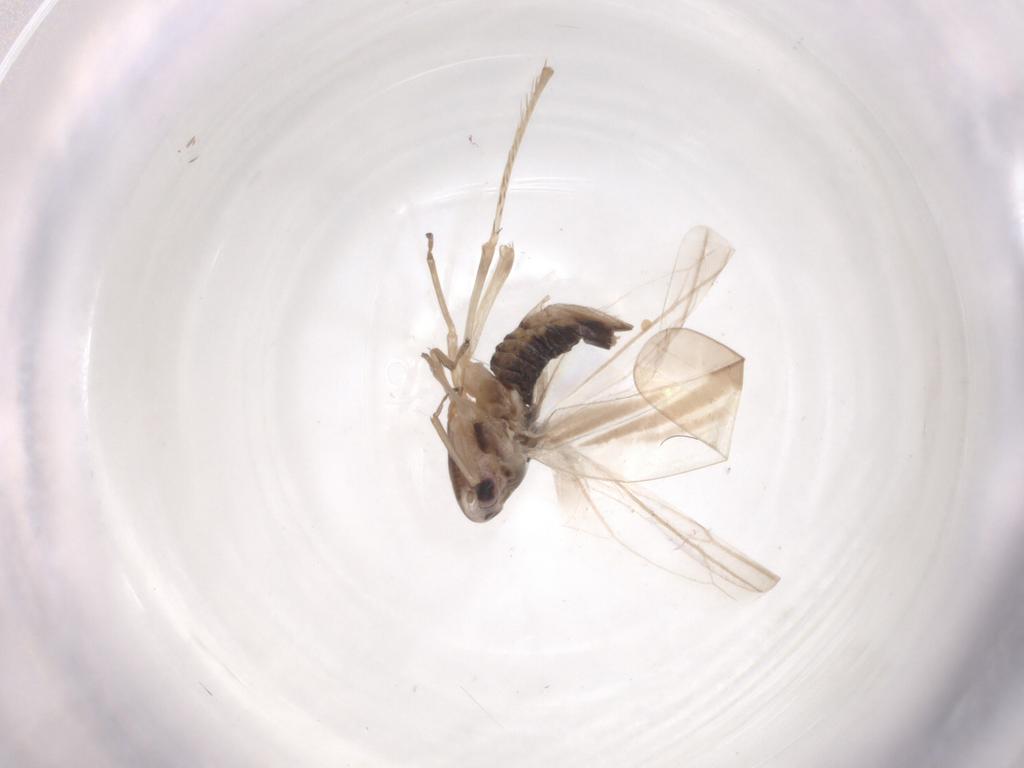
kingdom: Animalia
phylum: Arthropoda
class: Insecta
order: Hemiptera
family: Cicadellidae
